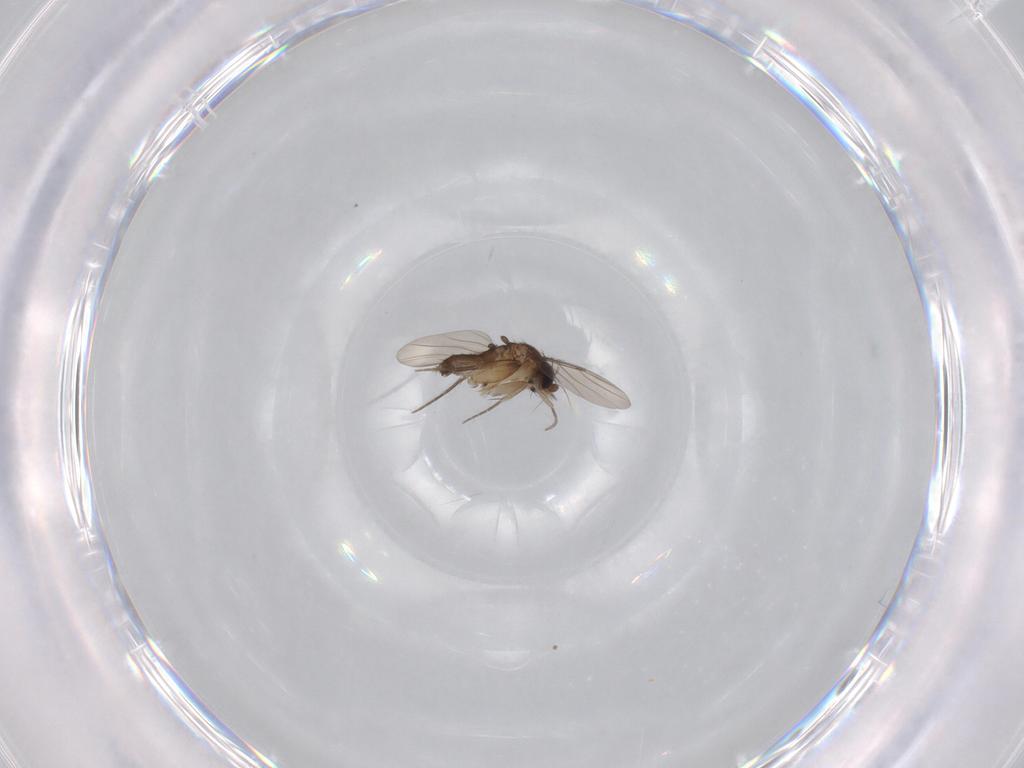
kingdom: Animalia
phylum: Arthropoda
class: Insecta
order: Diptera
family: Phoridae
